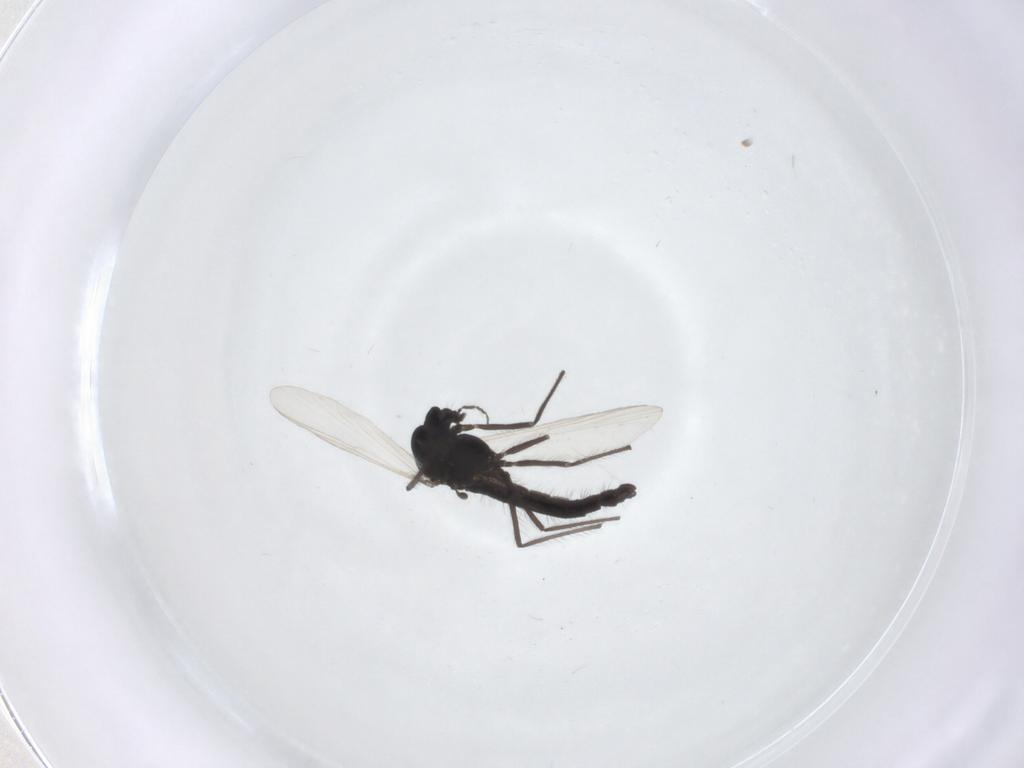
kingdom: Animalia
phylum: Arthropoda
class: Insecta
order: Diptera
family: Chironomidae
